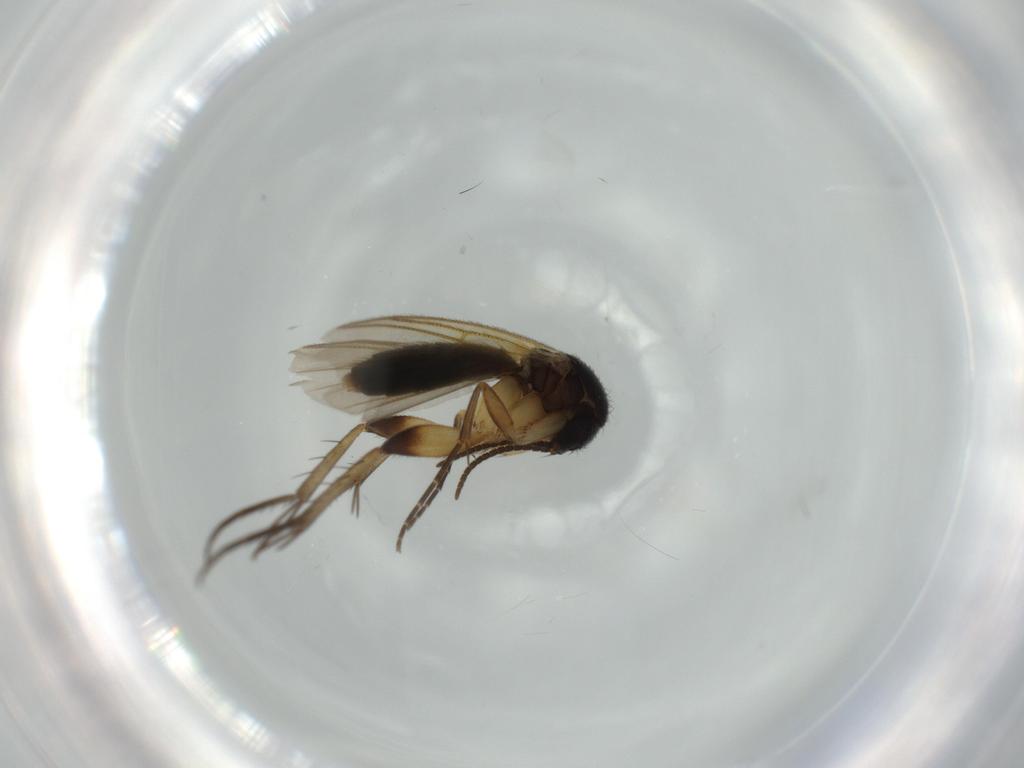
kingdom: Animalia
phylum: Arthropoda
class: Insecta
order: Diptera
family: Mycetophilidae
